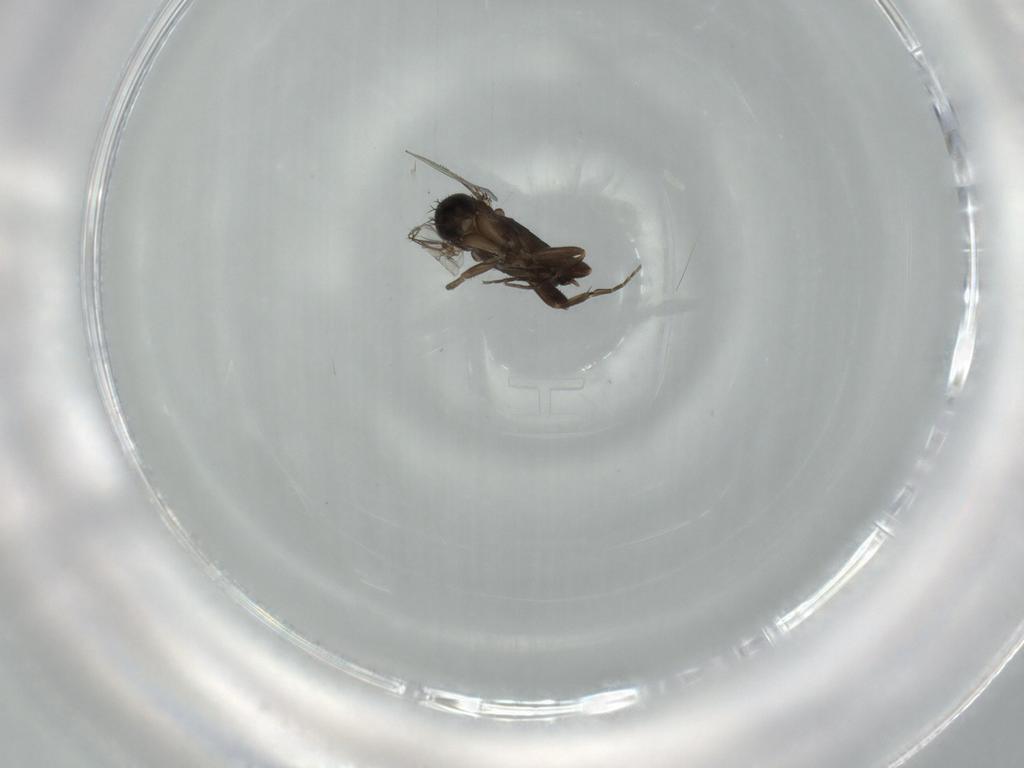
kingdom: Animalia
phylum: Arthropoda
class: Insecta
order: Diptera
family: Phoridae
